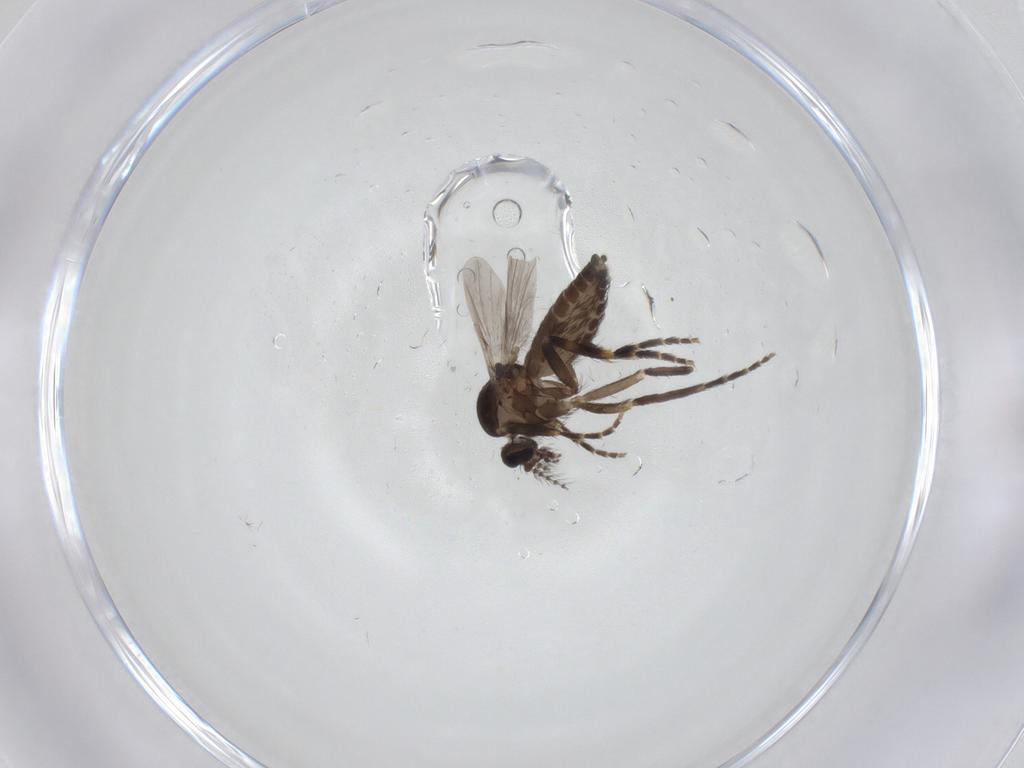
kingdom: Animalia
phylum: Arthropoda
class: Insecta
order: Diptera
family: Ceratopogonidae
